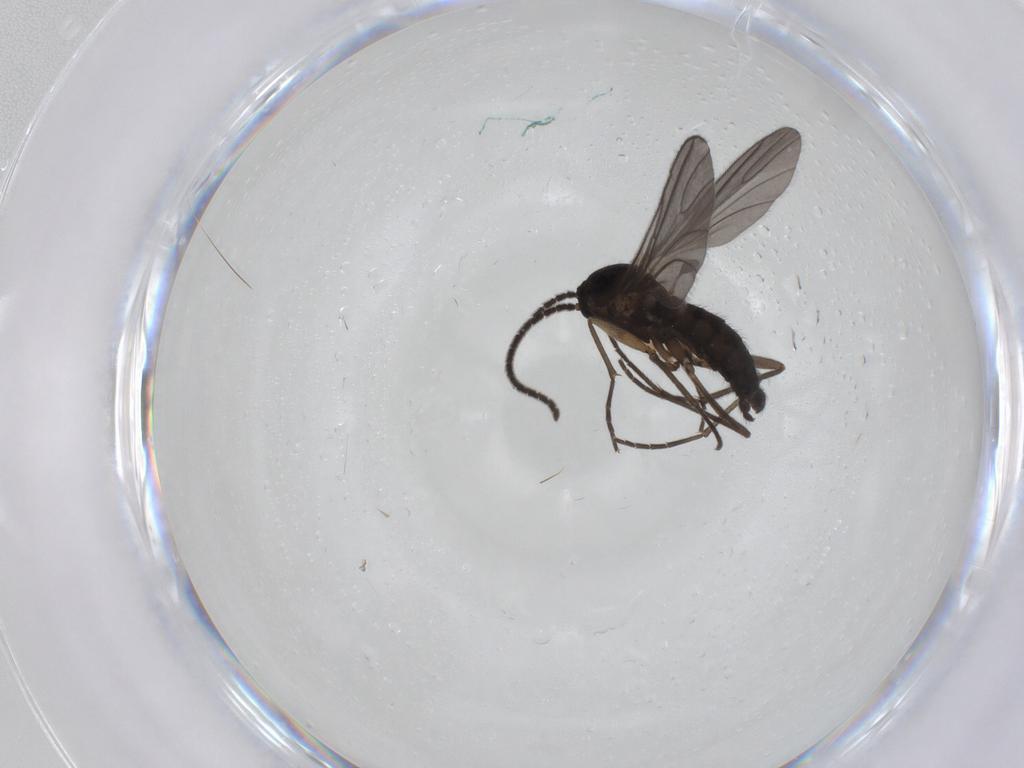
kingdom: Animalia
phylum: Arthropoda
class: Insecta
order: Diptera
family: Sciaridae
